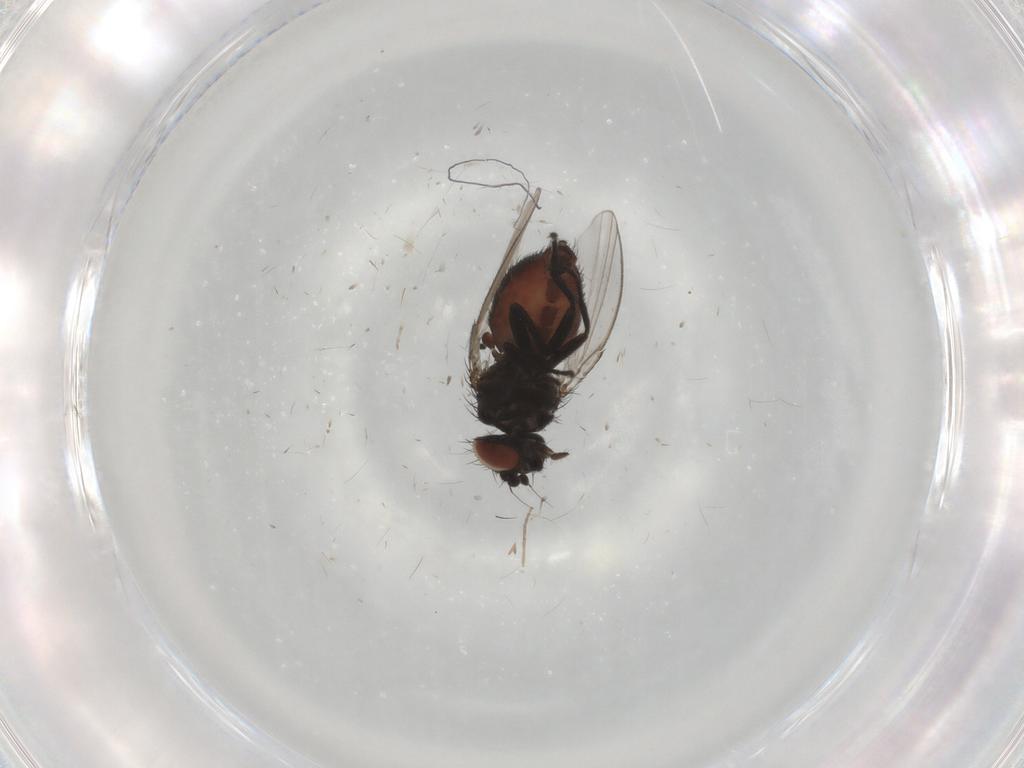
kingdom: Animalia
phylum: Arthropoda
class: Insecta
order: Diptera
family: Milichiidae
